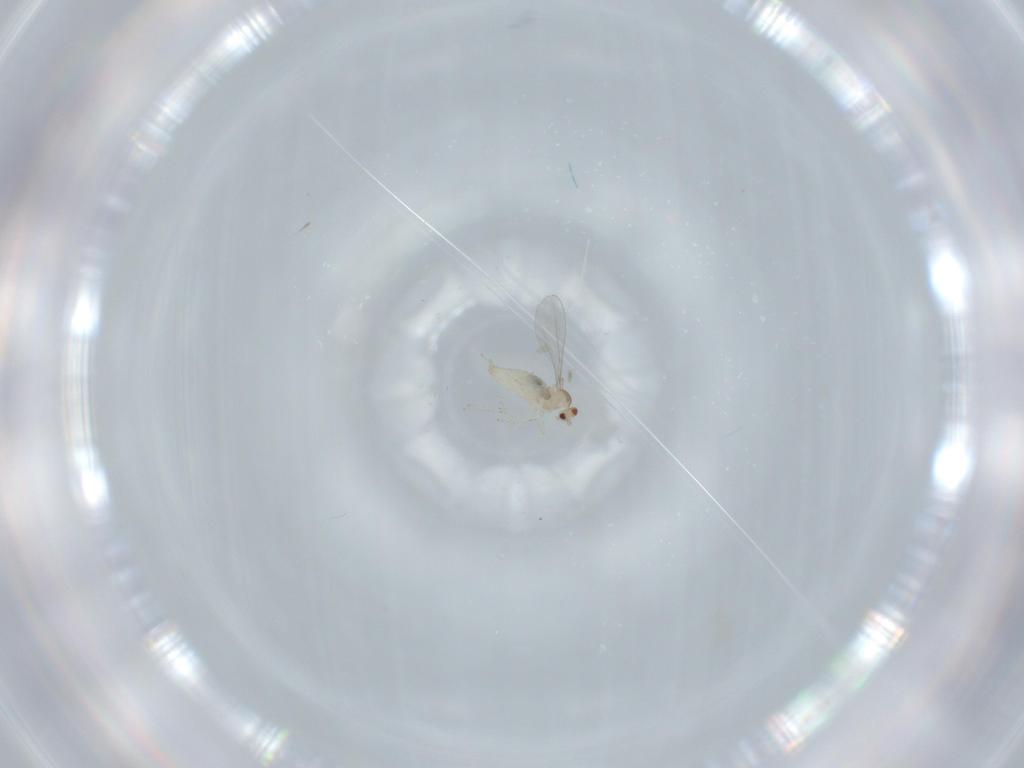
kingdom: Animalia
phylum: Arthropoda
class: Insecta
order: Diptera
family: Cecidomyiidae
